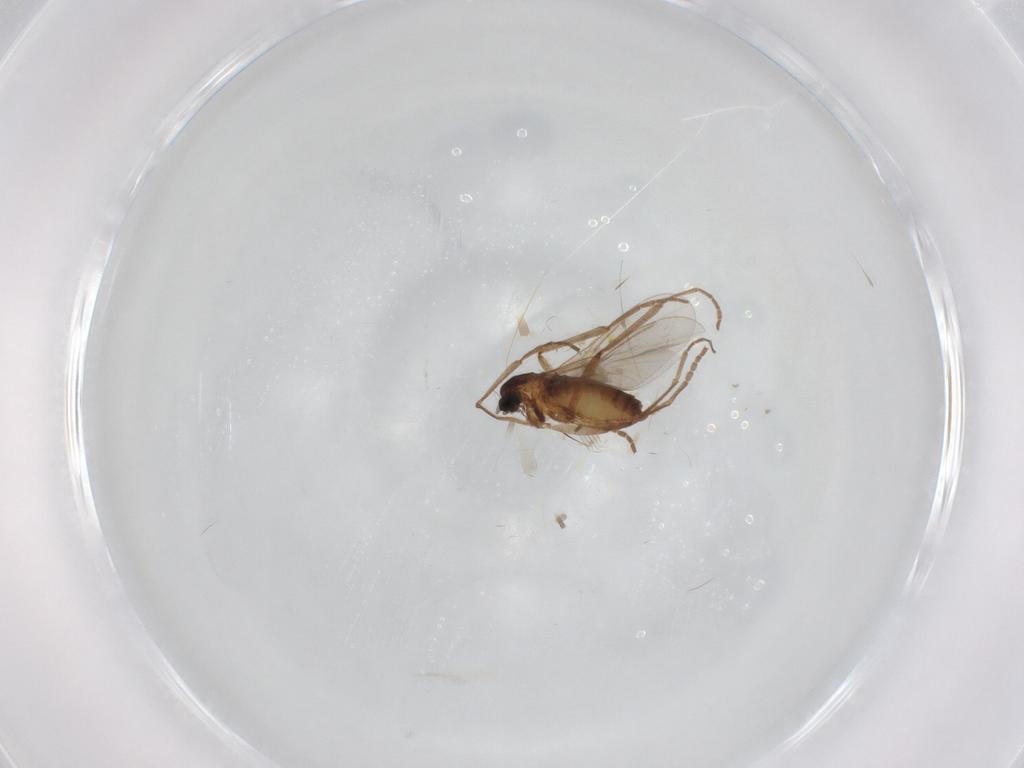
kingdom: Animalia
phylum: Arthropoda
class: Insecta
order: Diptera
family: Cecidomyiidae
